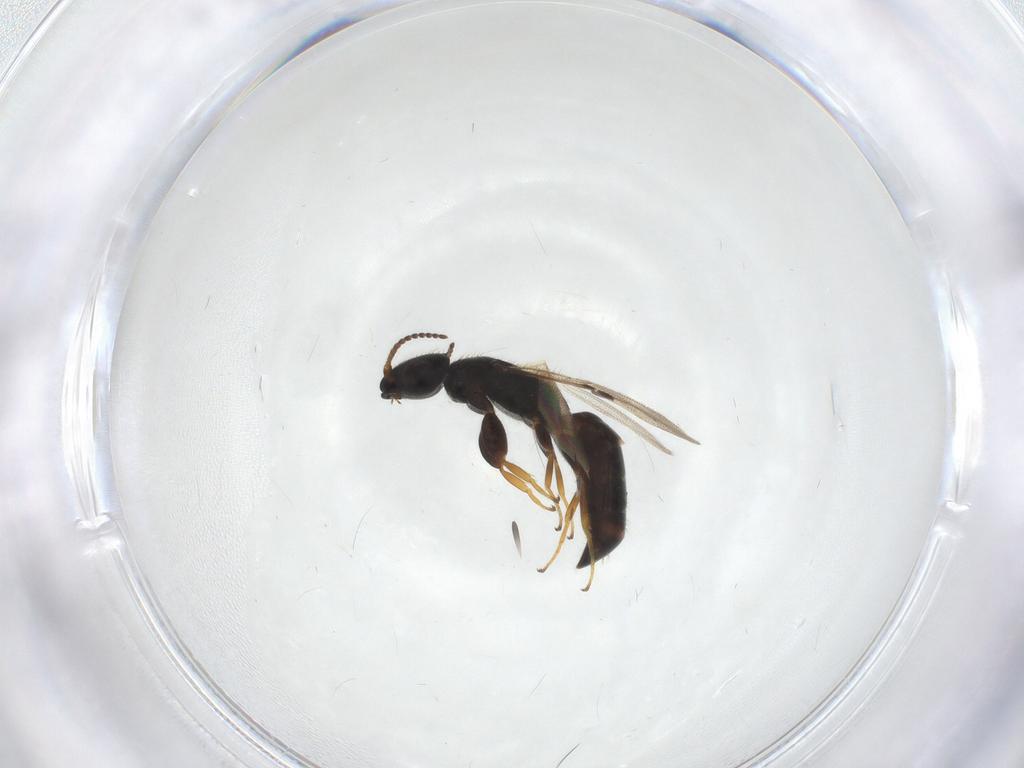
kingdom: Animalia
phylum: Arthropoda
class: Insecta
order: Hymenoptera
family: Bethylidae
